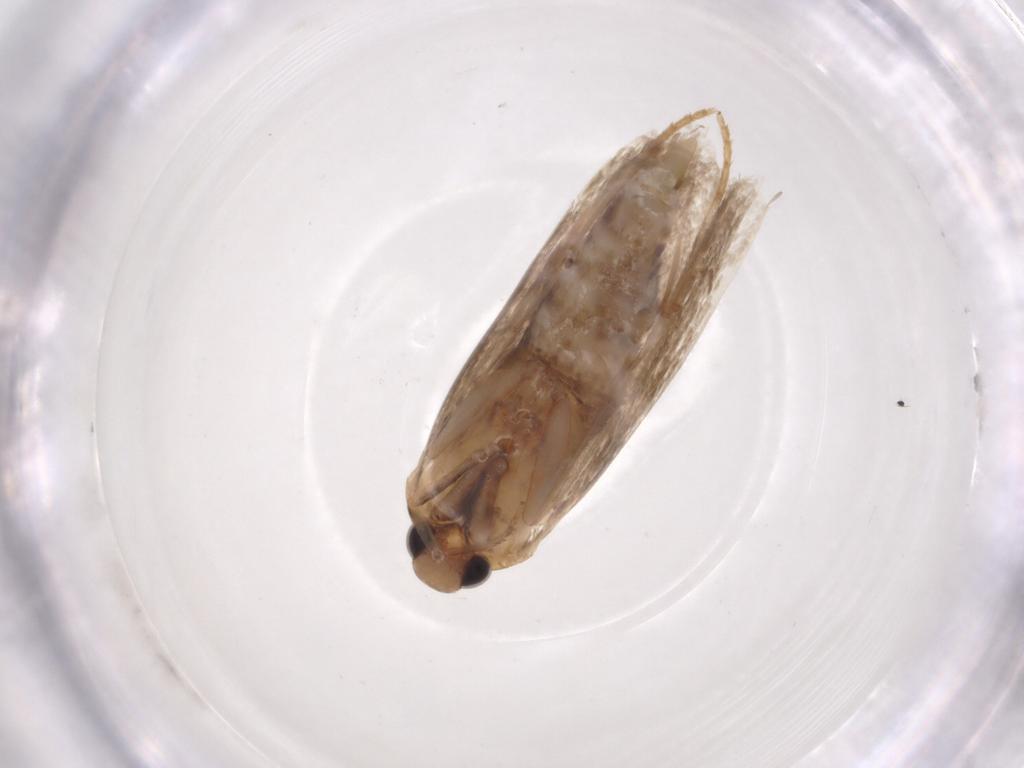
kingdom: Animalia
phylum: Arthropoda
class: Insecta
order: Lepidoptera
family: Autostichidae
